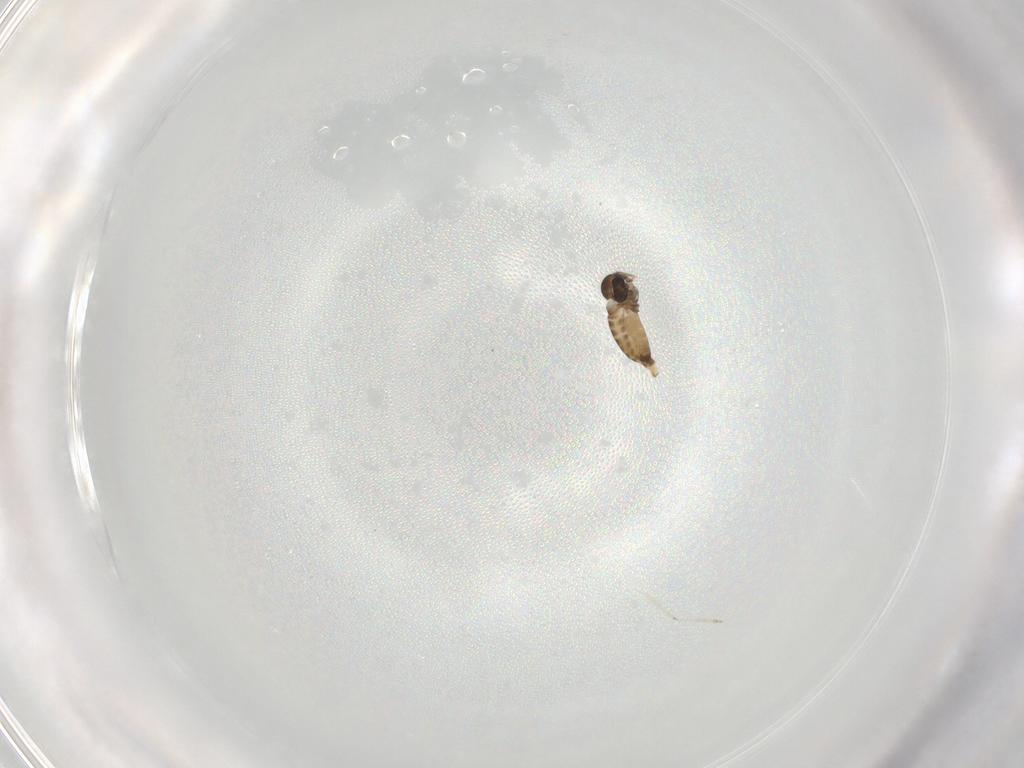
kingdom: Animalia
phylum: Arthropoda
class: Insecta
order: Diptera
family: Chironomidae
